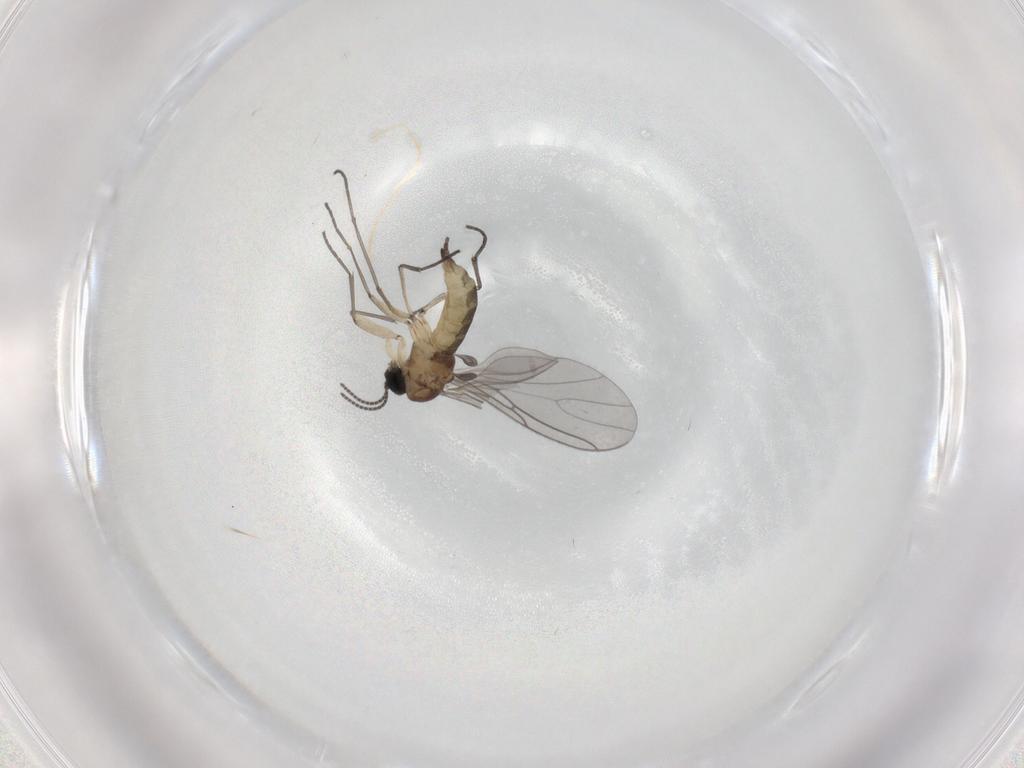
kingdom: Animalia
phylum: Arthropoda
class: Insecta
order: Diptera
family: Sciaridae
